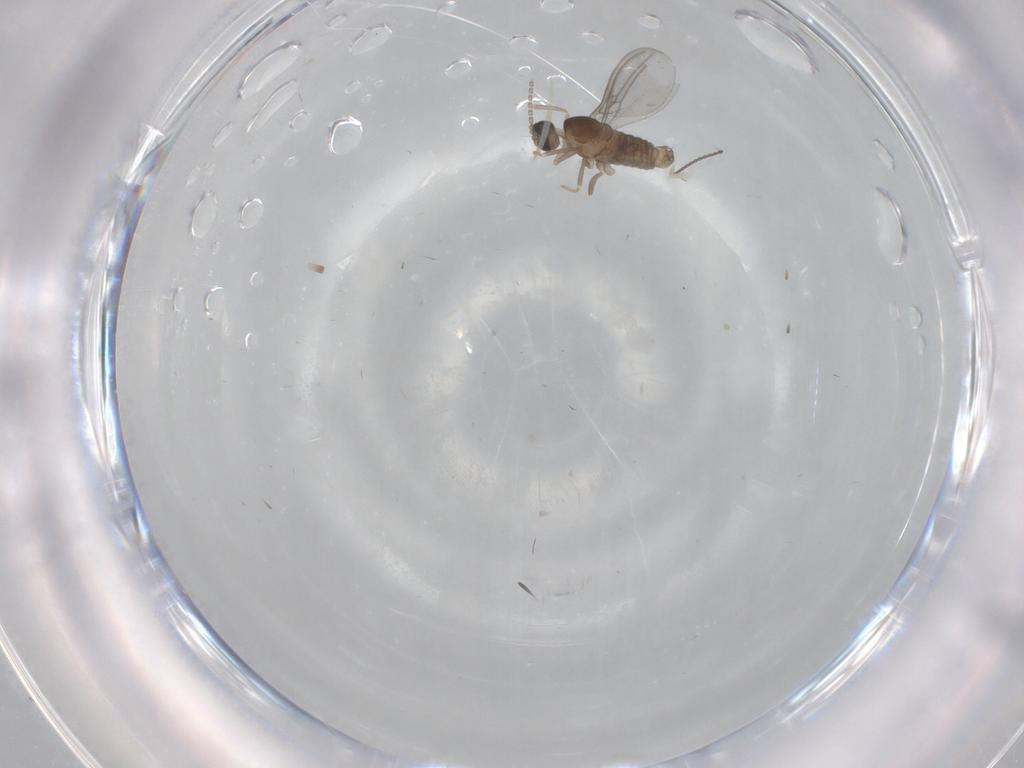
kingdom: Animalia
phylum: Arthropoda
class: Insecta
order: Diptera
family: Cecidomyiidae
